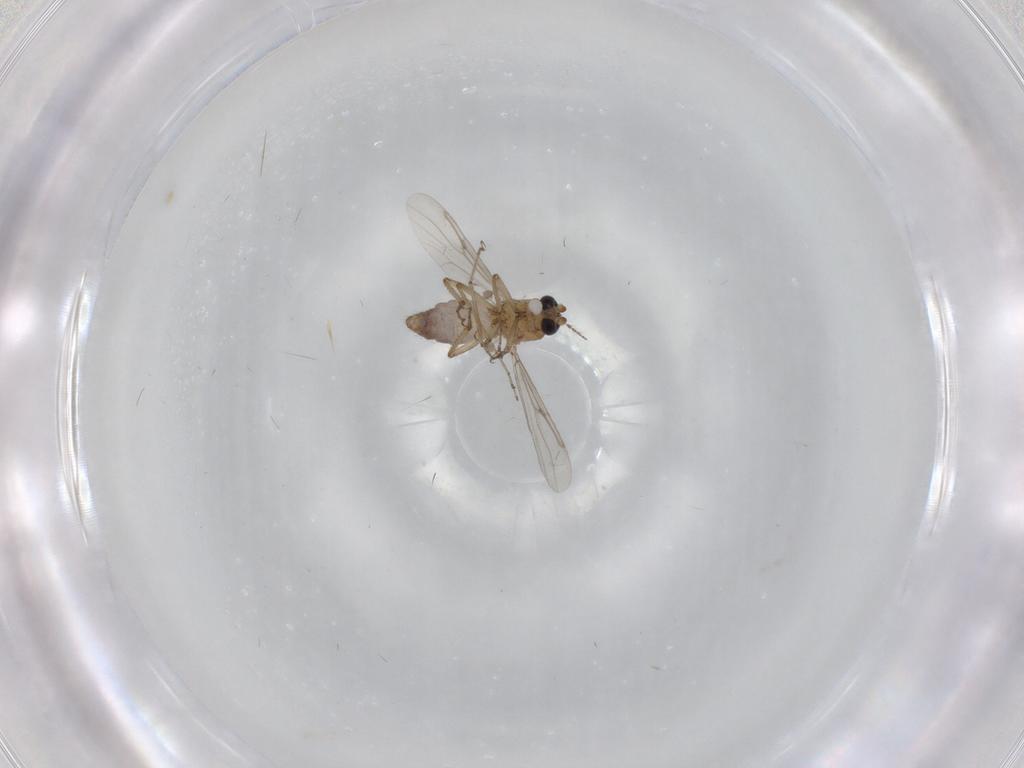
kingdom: Animalia
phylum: Arthropoda
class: Insecta
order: Diptera
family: Ceratopogonidae
